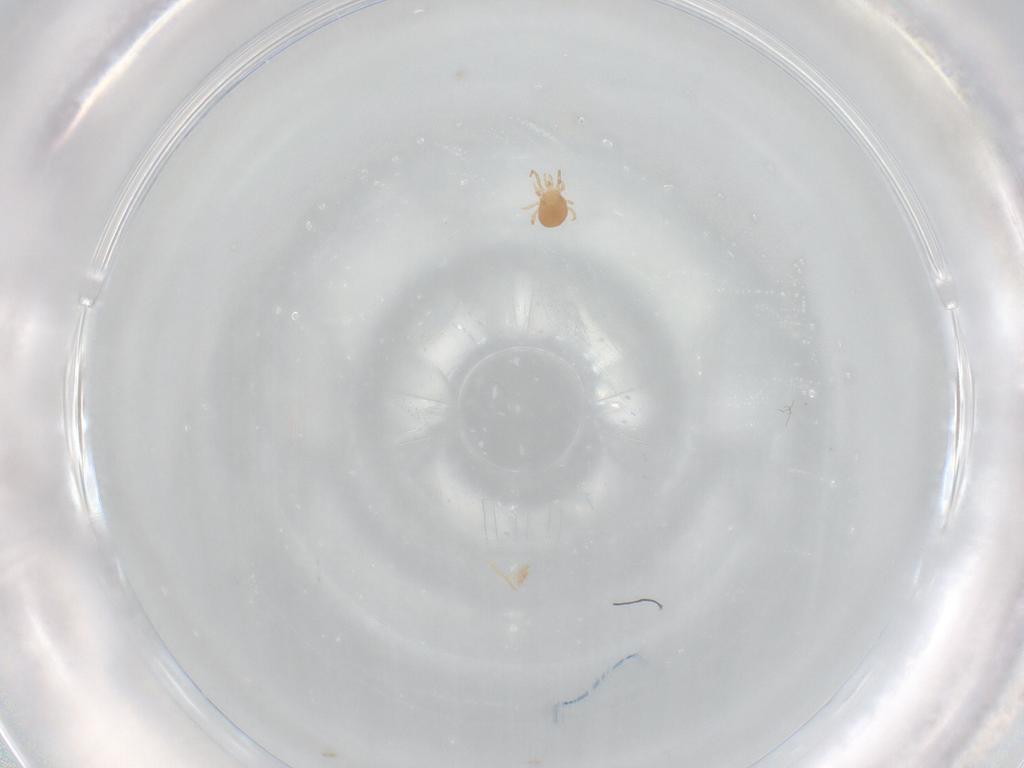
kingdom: Animalia
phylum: Arthropoda
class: Arachnida
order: Mesostigmata
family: Phytoseiidae
